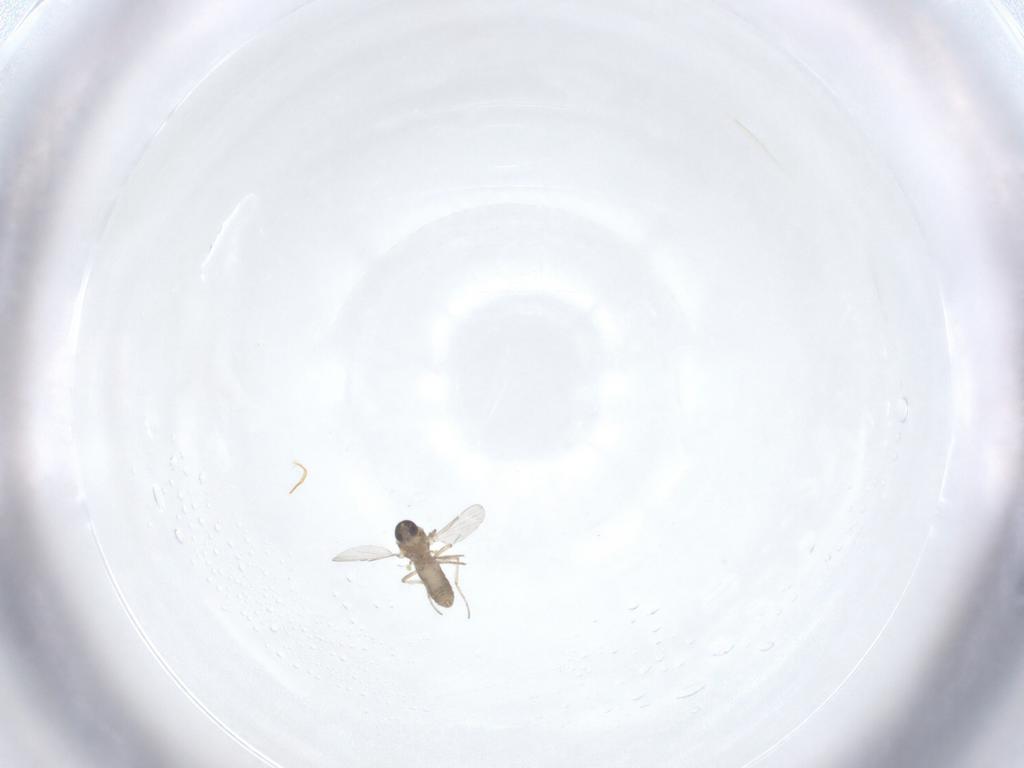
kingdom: Animalia
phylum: Arthropoda
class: Insecta
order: Diptera
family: Ceratopogonidae
